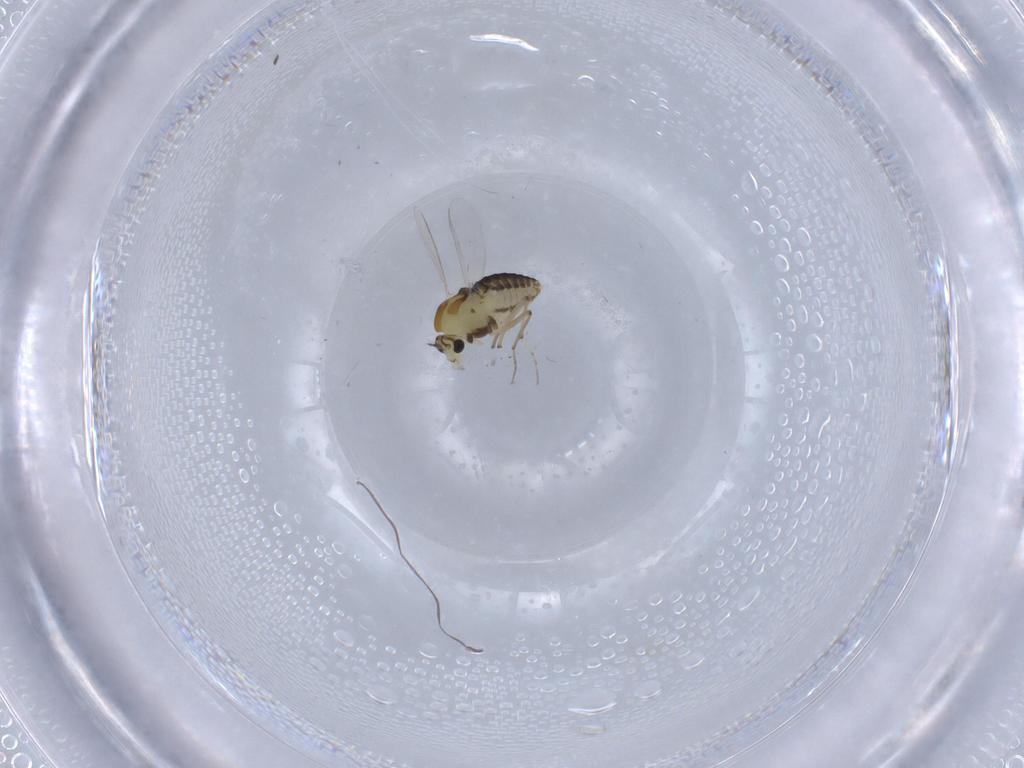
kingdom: Animalia
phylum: Arthropoda
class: Insecta
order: Diptera
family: Chironomidae
